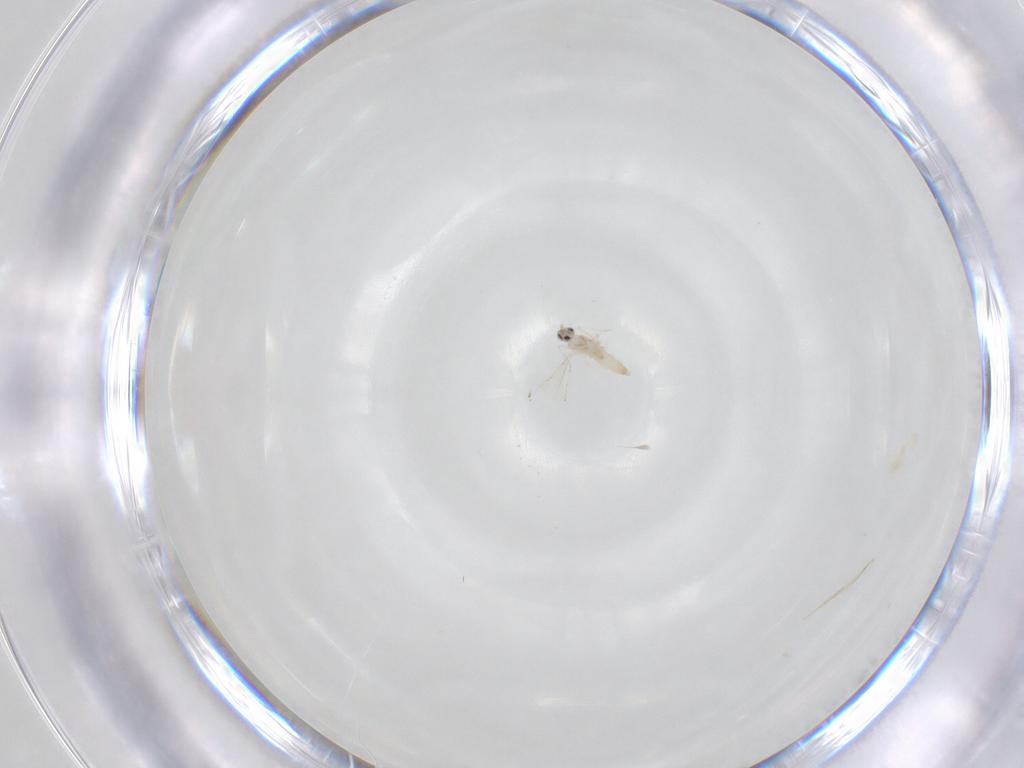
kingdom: Animalia
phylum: Arthropoda
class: Insecta
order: Diptera
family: Cecidomyiidae
